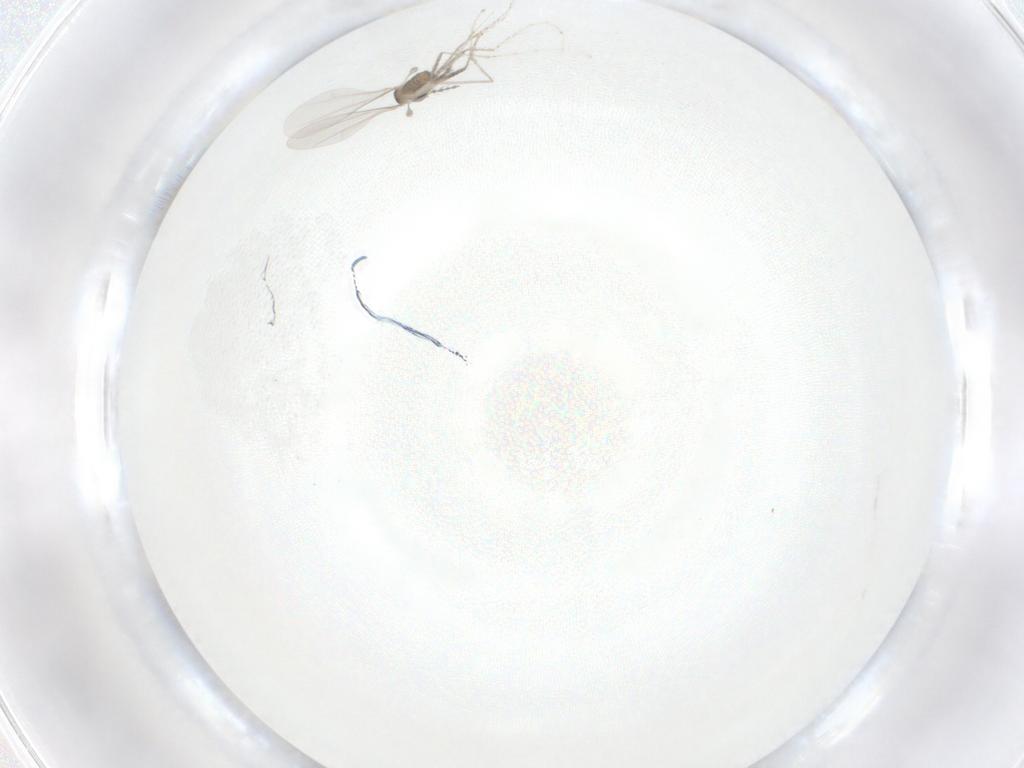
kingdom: Animalia
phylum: Arthropoda
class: Insecta
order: Diptera
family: Cecidomyiidae
